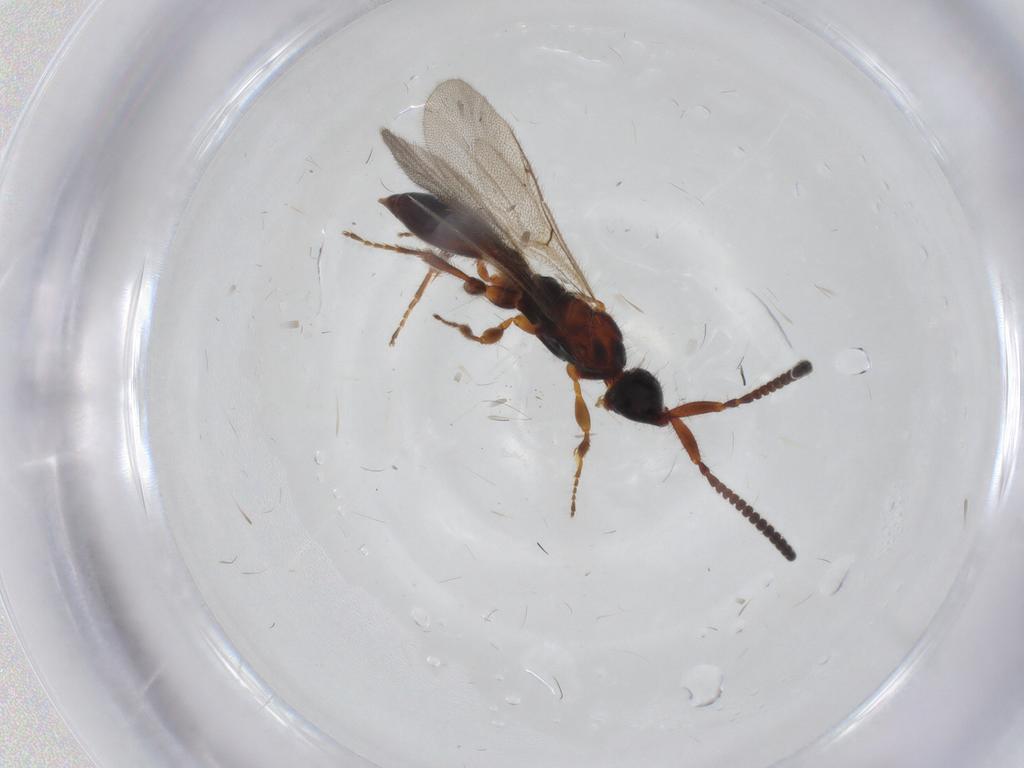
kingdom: Animalia
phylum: Arthropoda
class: Insecta
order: Hymenoptera
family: Diapriidae
